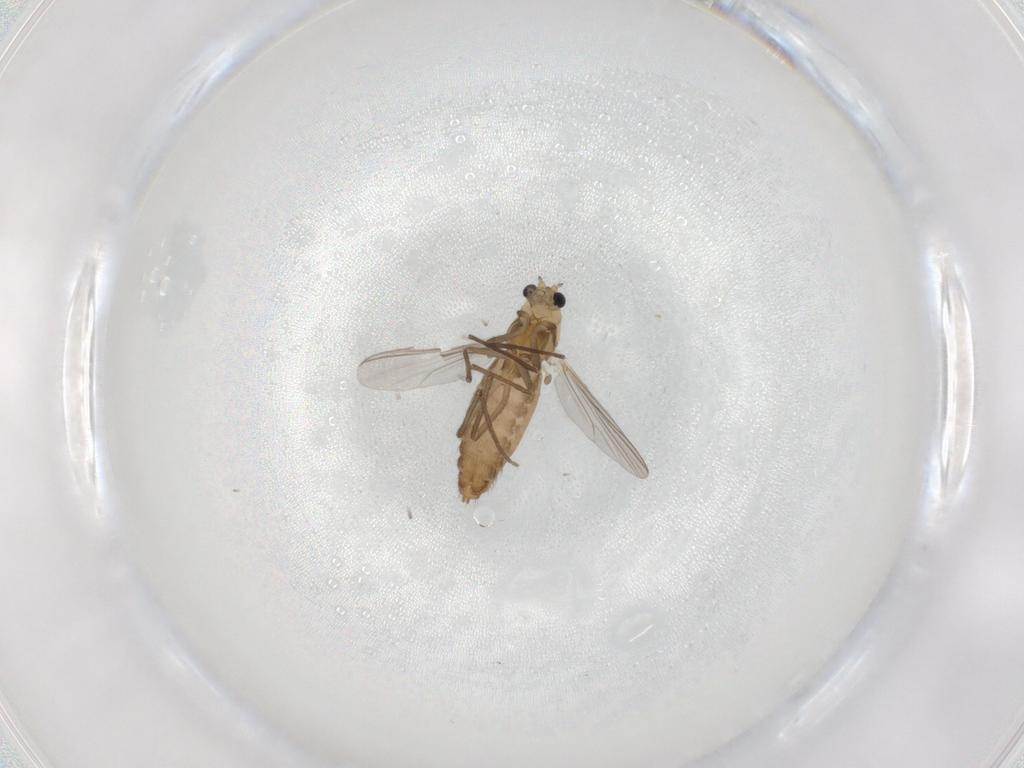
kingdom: Animalia
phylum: Arthropoda
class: Insecta
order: Diptera
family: Chironomidae
